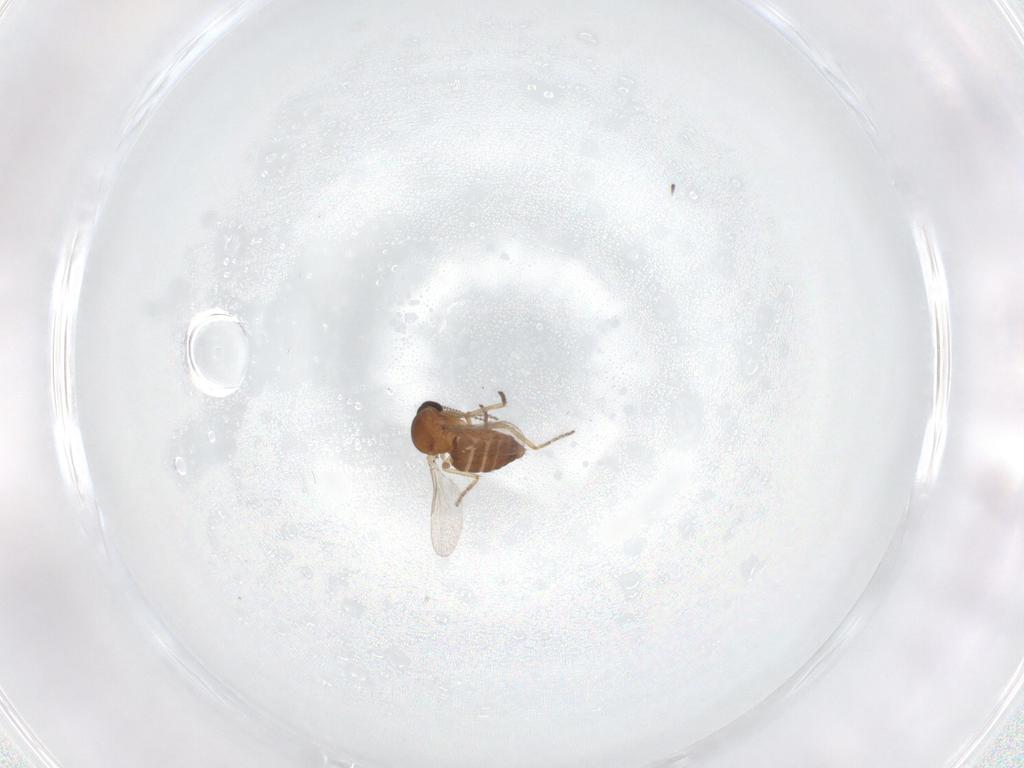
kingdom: Animalia
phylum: Arthropoda
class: Insecta
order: Diptera
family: Ceratopogonidae
